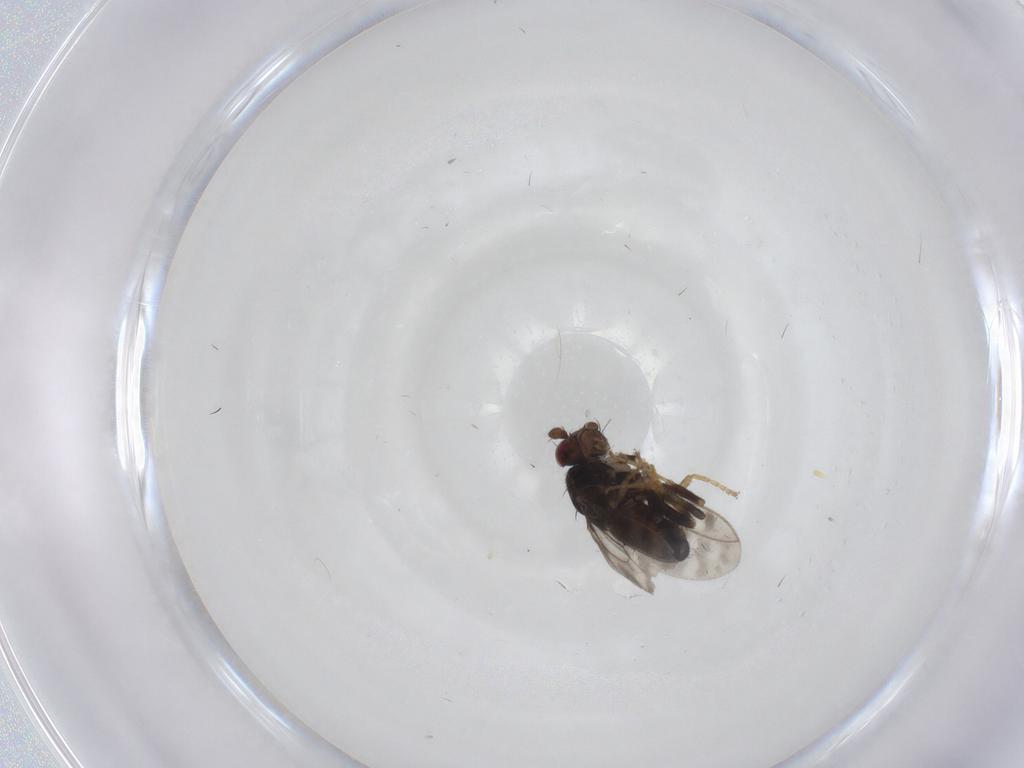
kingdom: Animalia
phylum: Arthropoda
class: Insecta
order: Diptera
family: Sphaeroceridae
